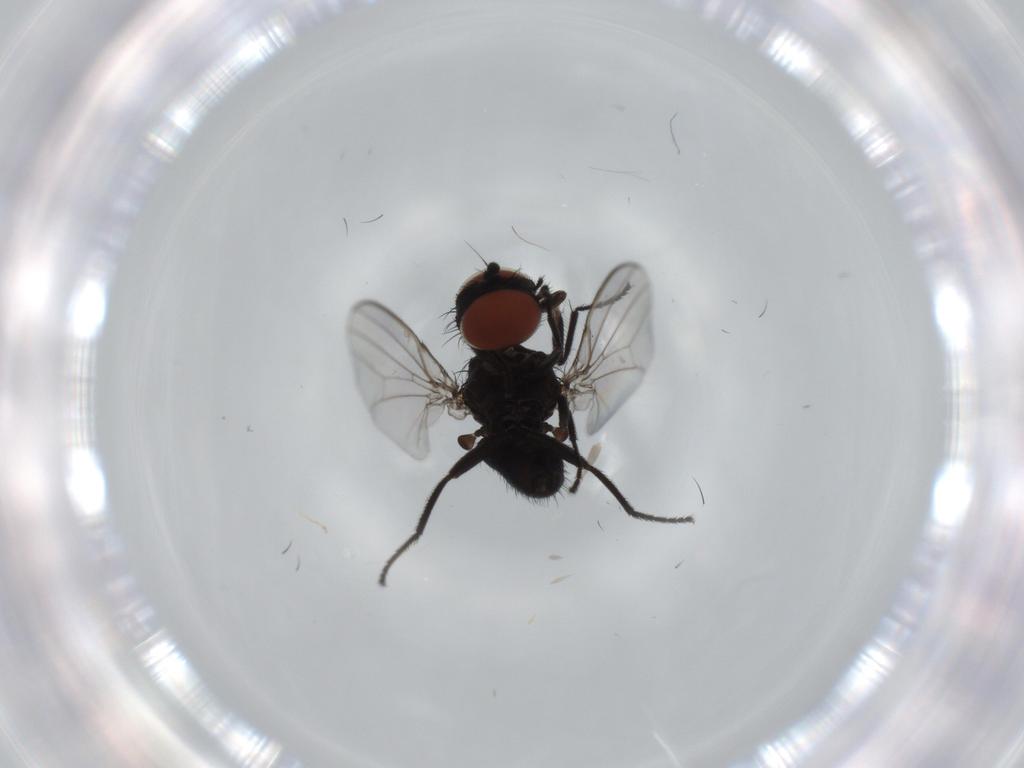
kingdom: Animalia
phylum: Arthropoda
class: Insecta
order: Diptera
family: Milichiidae
